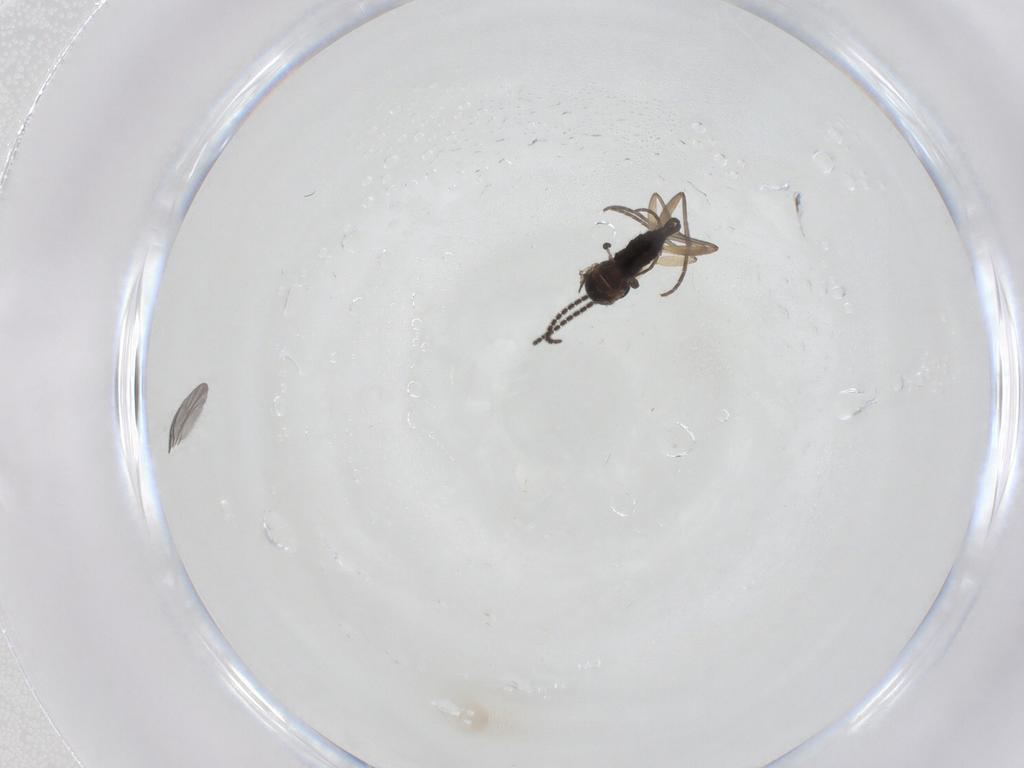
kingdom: Animalia
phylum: Arthropoda
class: Insecta
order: Diptera
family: Sciaridae
